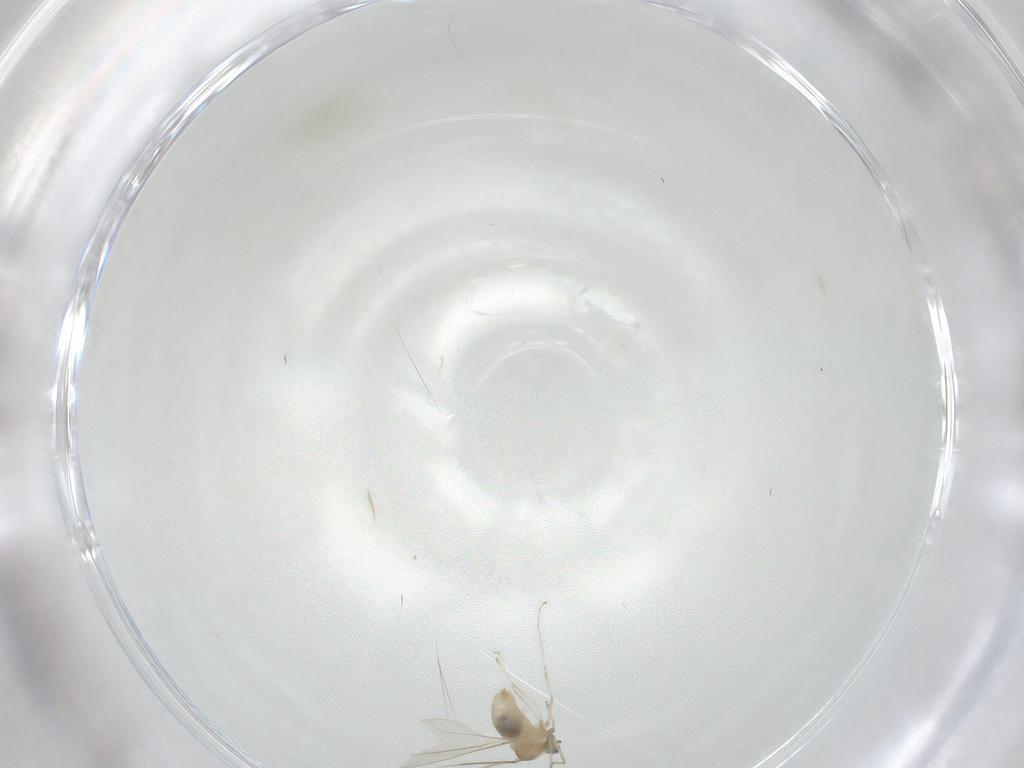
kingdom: Animalia
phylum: Arthropoda
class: Insecta
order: Diptera
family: Cecidomyiidae
